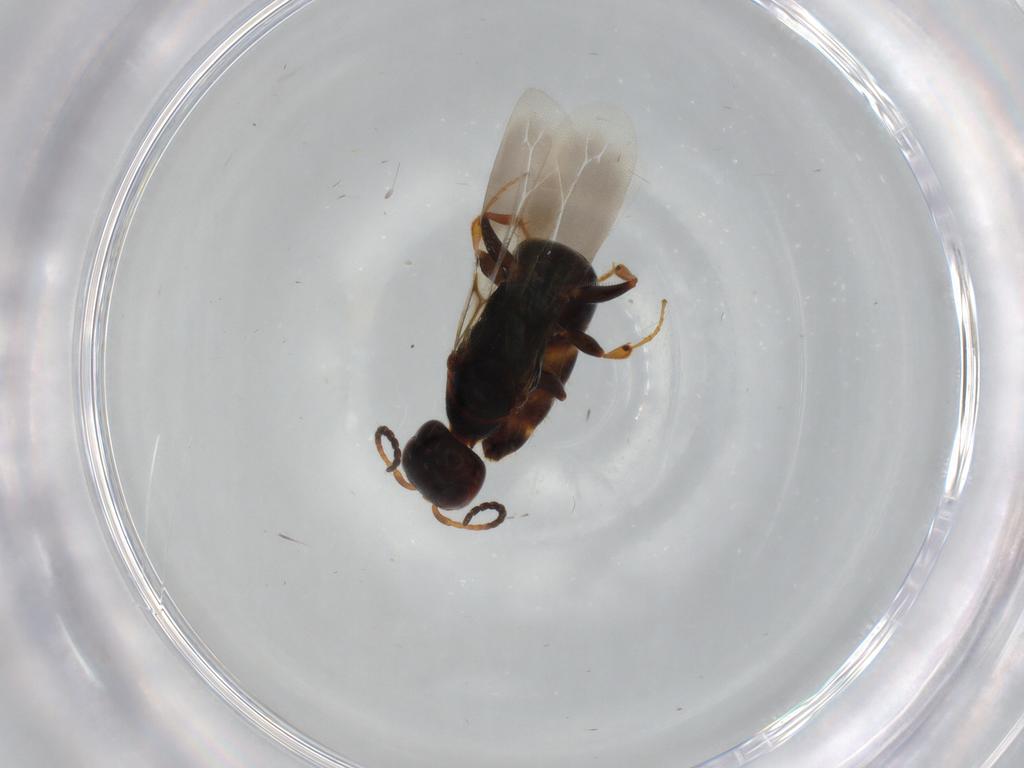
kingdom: Animalia
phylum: Arthropoda
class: Insecta
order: Hymenoptera
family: Bethylidae
